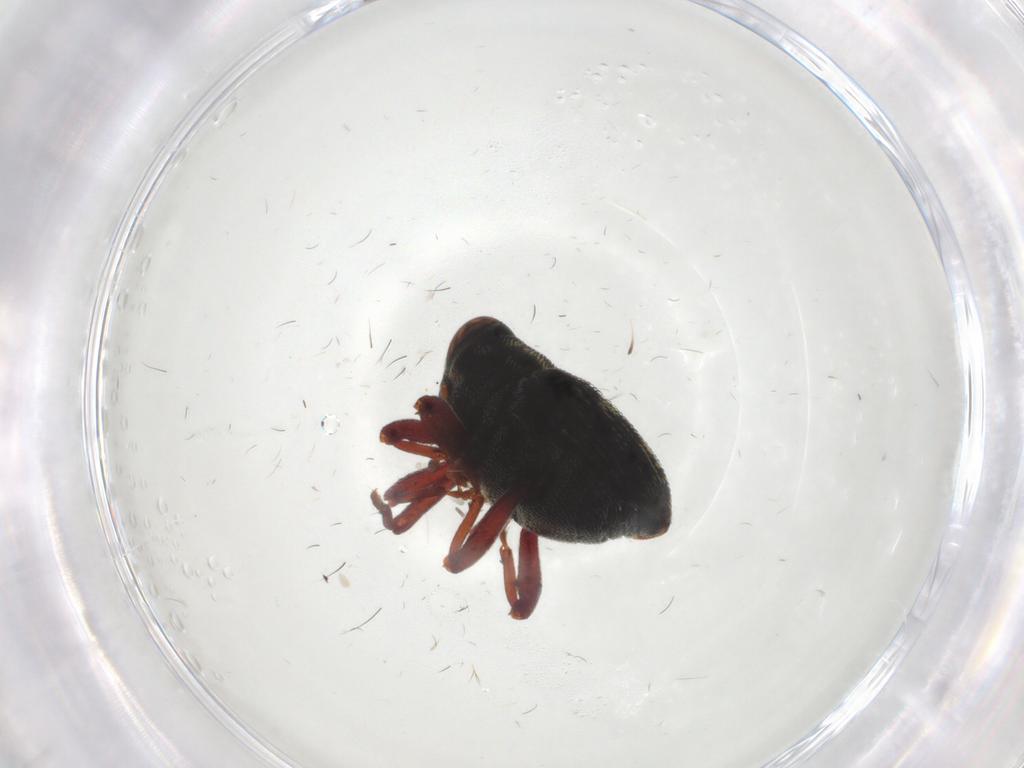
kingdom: Animalia
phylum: Arthropoda
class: Insecta
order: Coleoptera
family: Curculionidae
